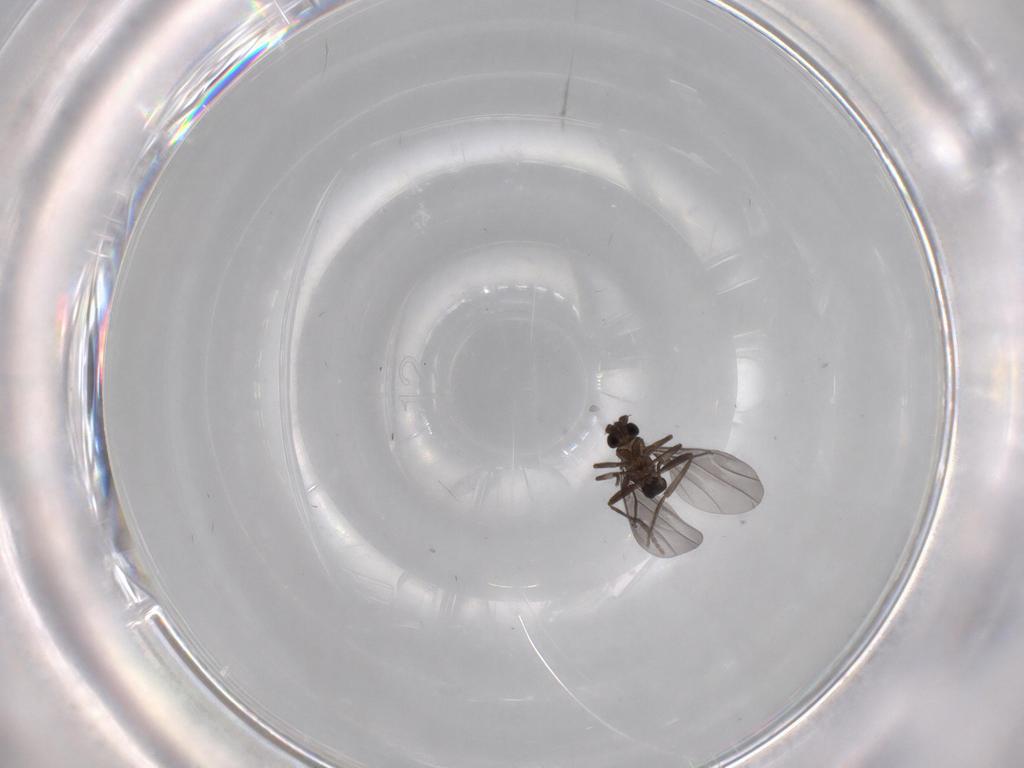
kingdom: Animalia
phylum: Arthropoda
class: Insecta
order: Diptera
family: Phoridae
